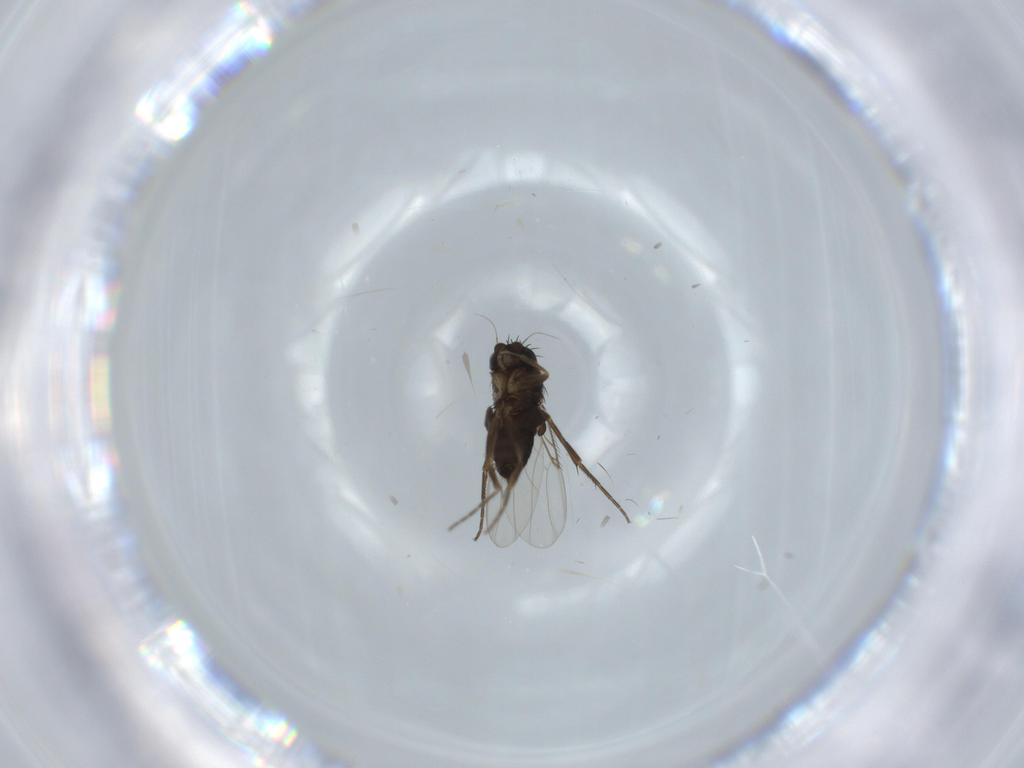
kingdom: Animalia
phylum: Arthropoda
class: Insecta
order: Diptera
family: Phoridae
